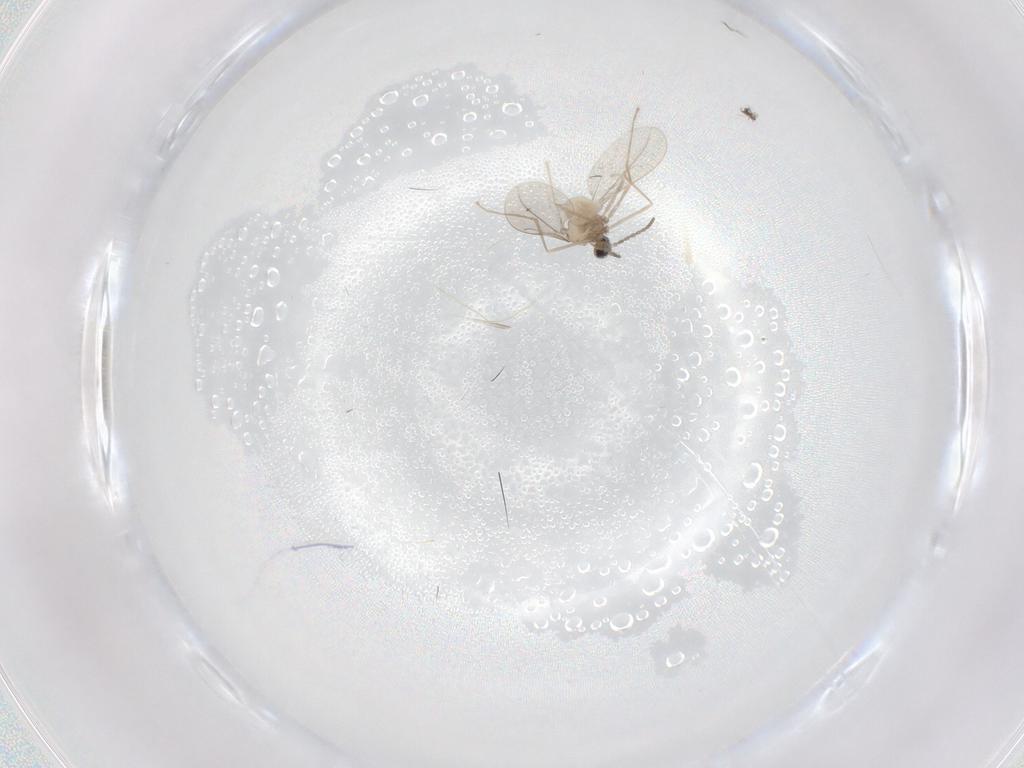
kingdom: Animalia
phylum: Arthropoda
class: Insecta
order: Diptera
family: Cecidomyiidae
